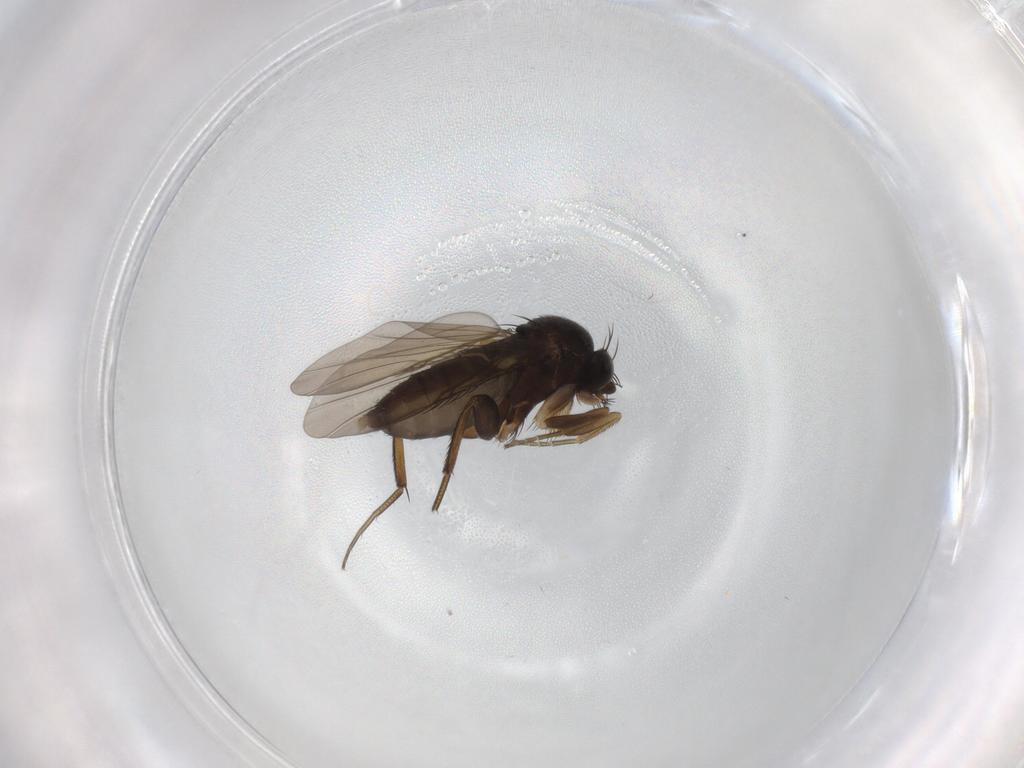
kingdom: Animalia
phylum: Arthropoda
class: Insecta
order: Diptera
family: Phoridae
